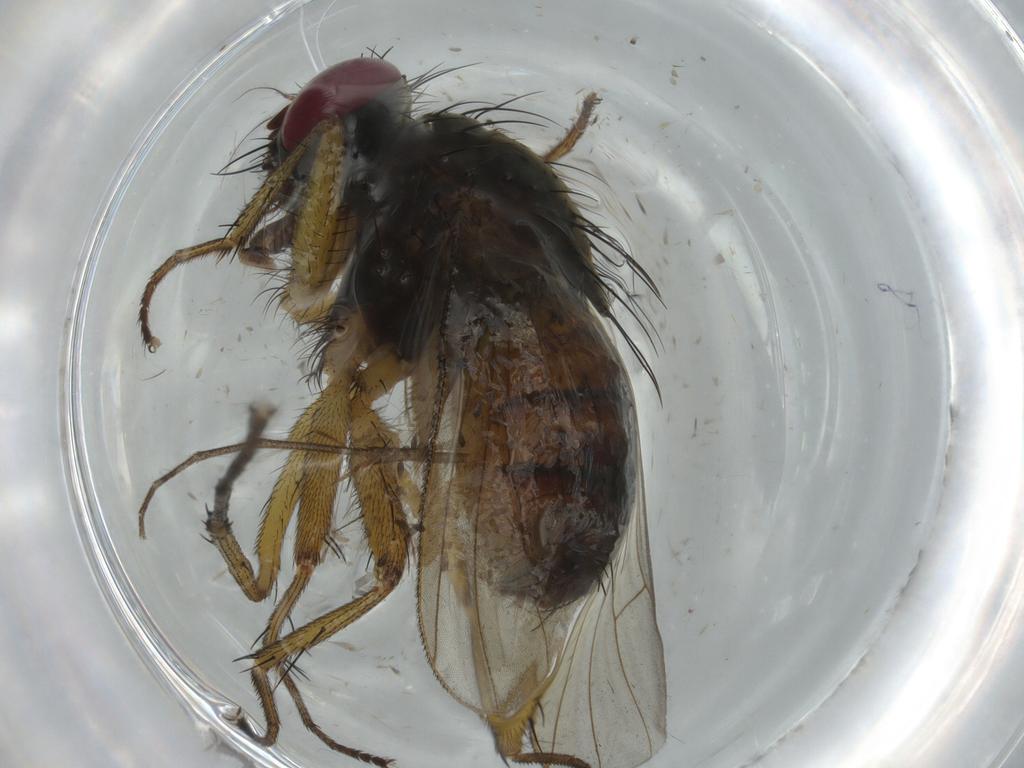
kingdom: Animalia
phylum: Arthropoda
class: Insecta
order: Diptera
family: Muscidae
